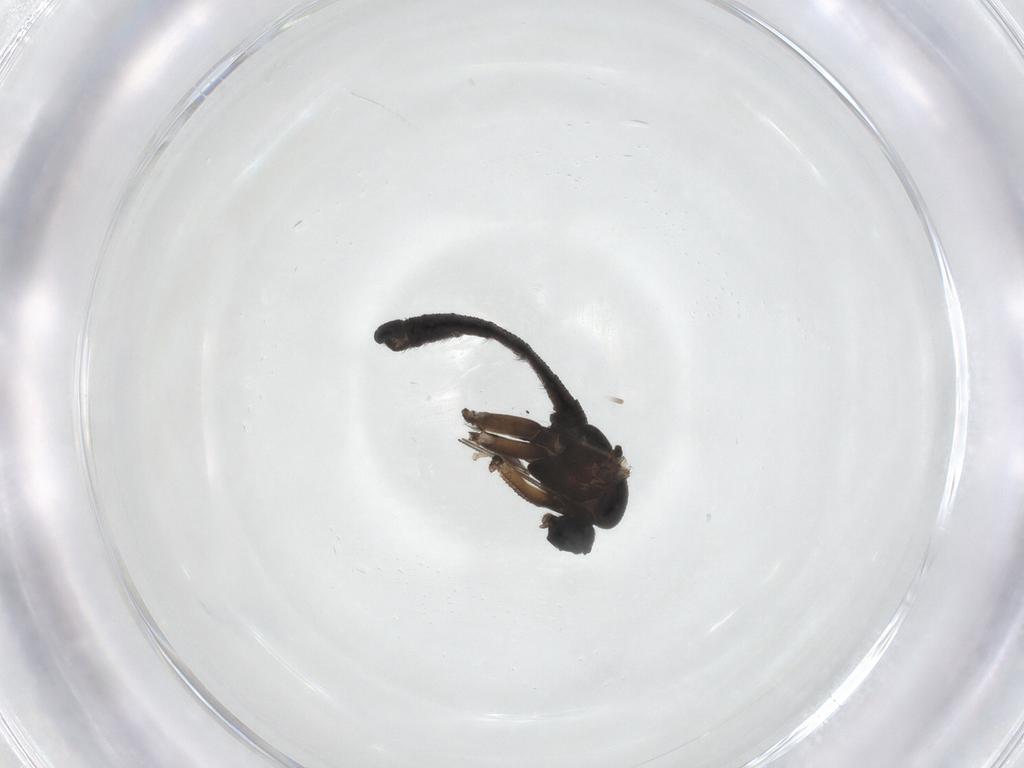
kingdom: Animalia
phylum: Arthropoda
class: Insecta
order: Diptera
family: Sciaridae
